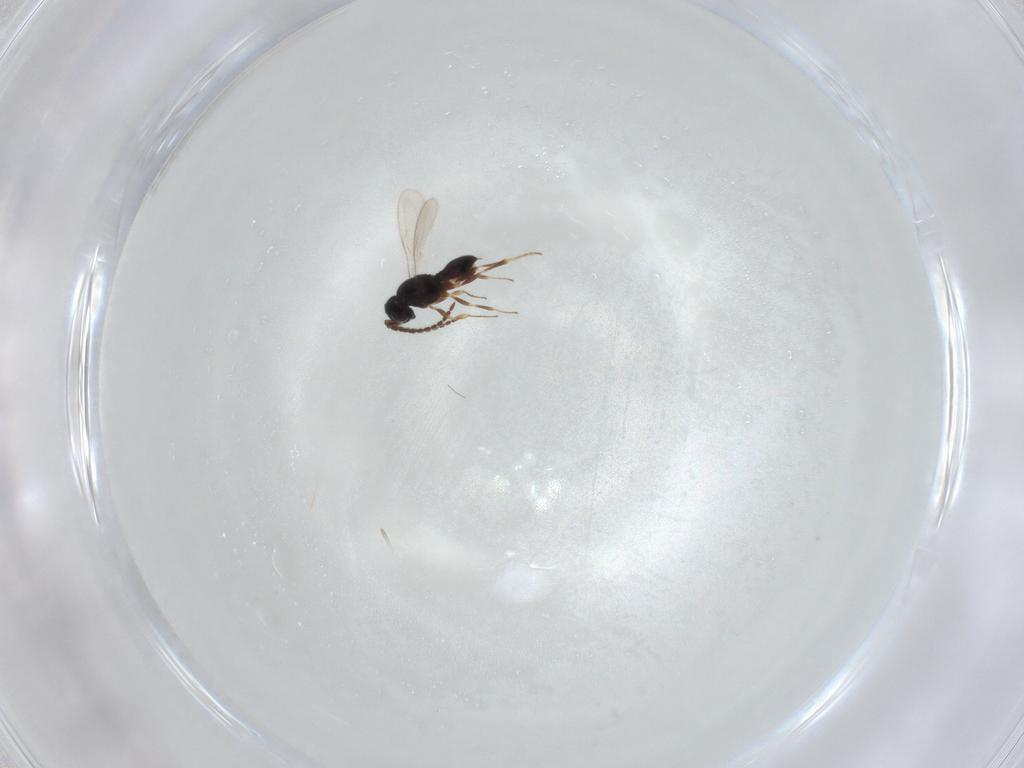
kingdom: Animalia
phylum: Arthropoda
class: Insecta
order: Hymenoptera
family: Scelionidae
